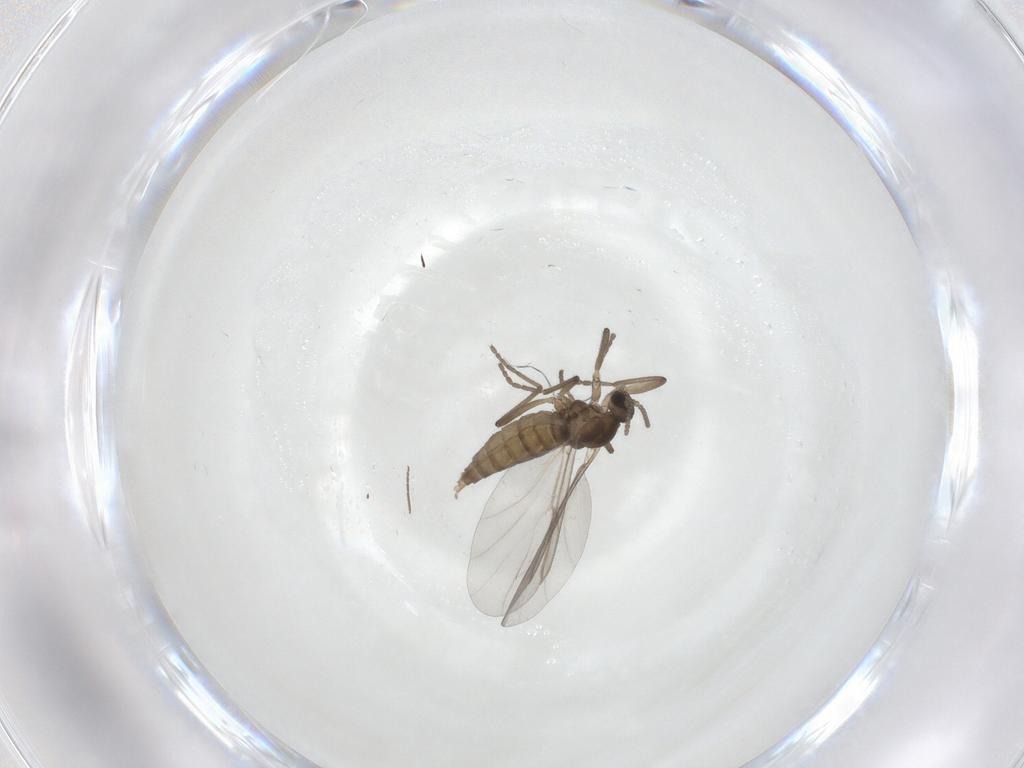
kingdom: Animalia
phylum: Arthropoda
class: Insecta
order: Diptera
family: Cecidomyiidae
